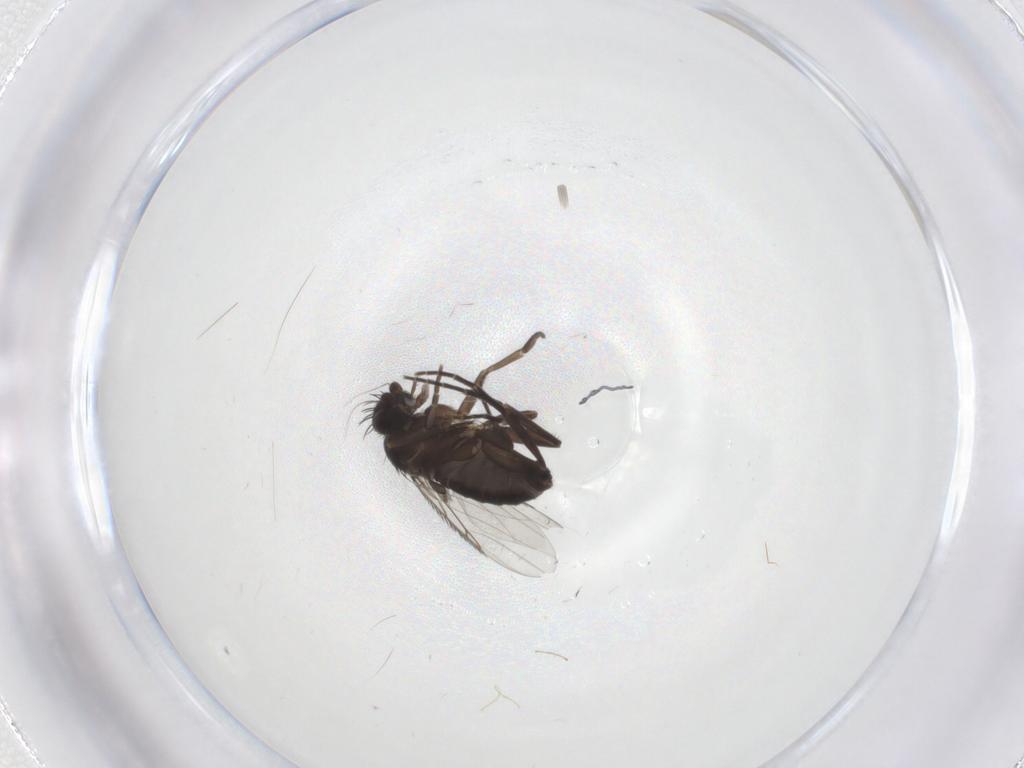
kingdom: Animalia
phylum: Arthropoda
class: Insecta
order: Diptera
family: Phoridae
